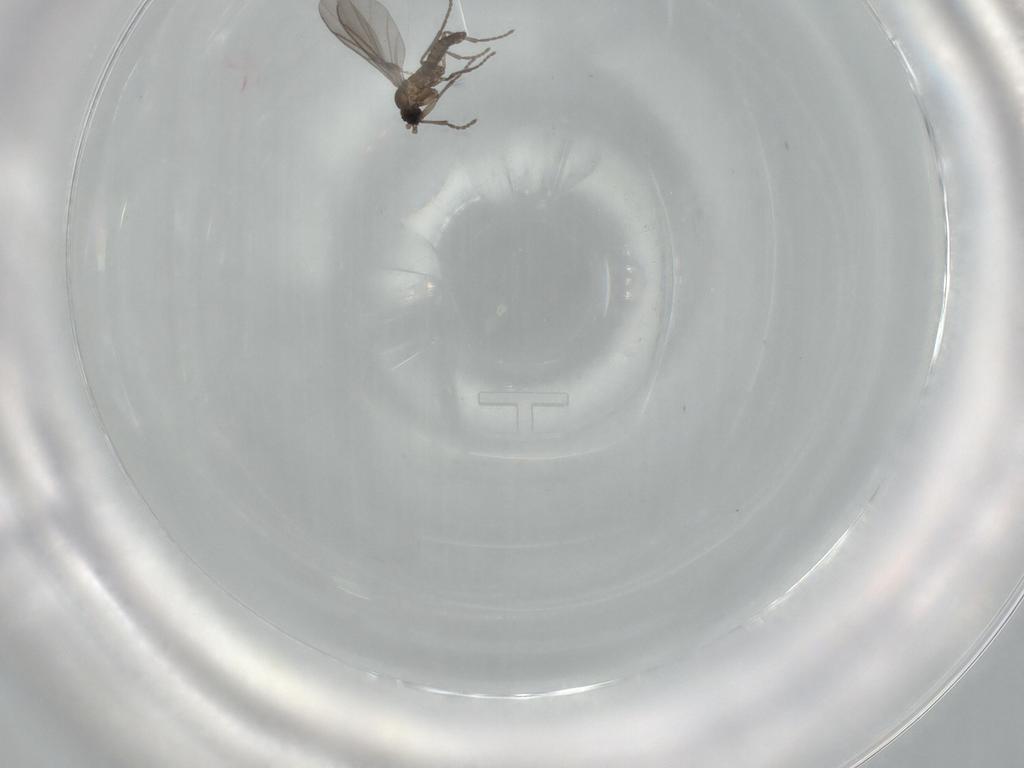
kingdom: Animalia
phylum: Arthropoda
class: Insecta
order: Diptera
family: Ceratopogonidae
